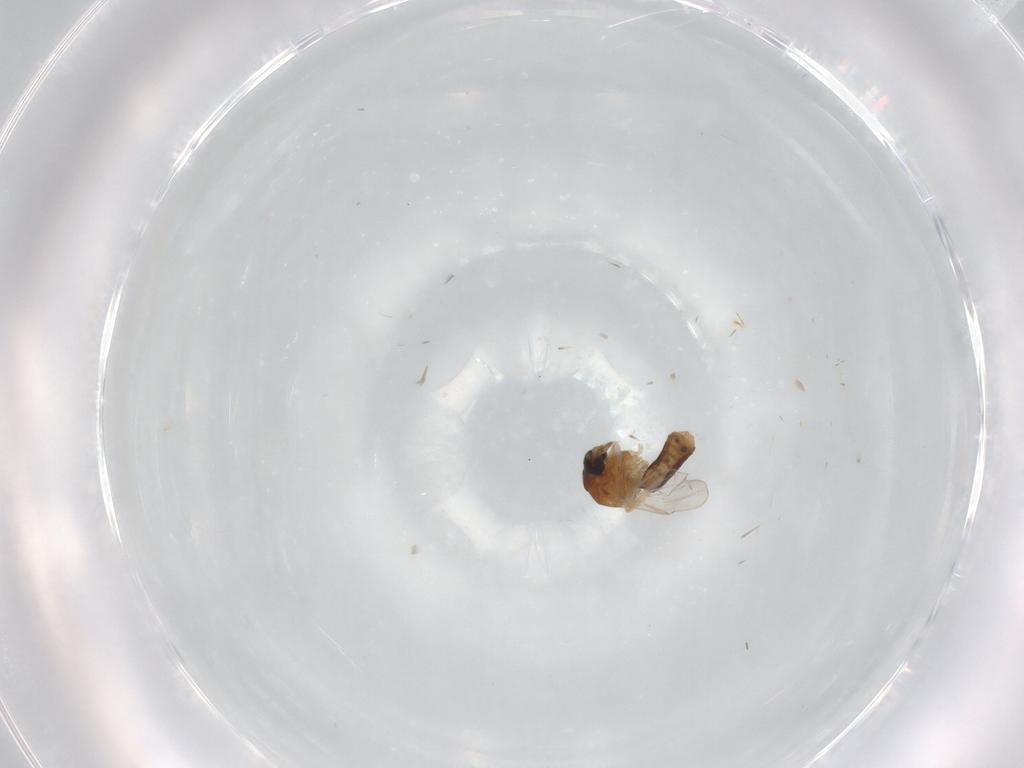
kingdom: Animalia
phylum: Arthropoda
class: Insecta
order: Diptera
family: Ceratopogonidae
